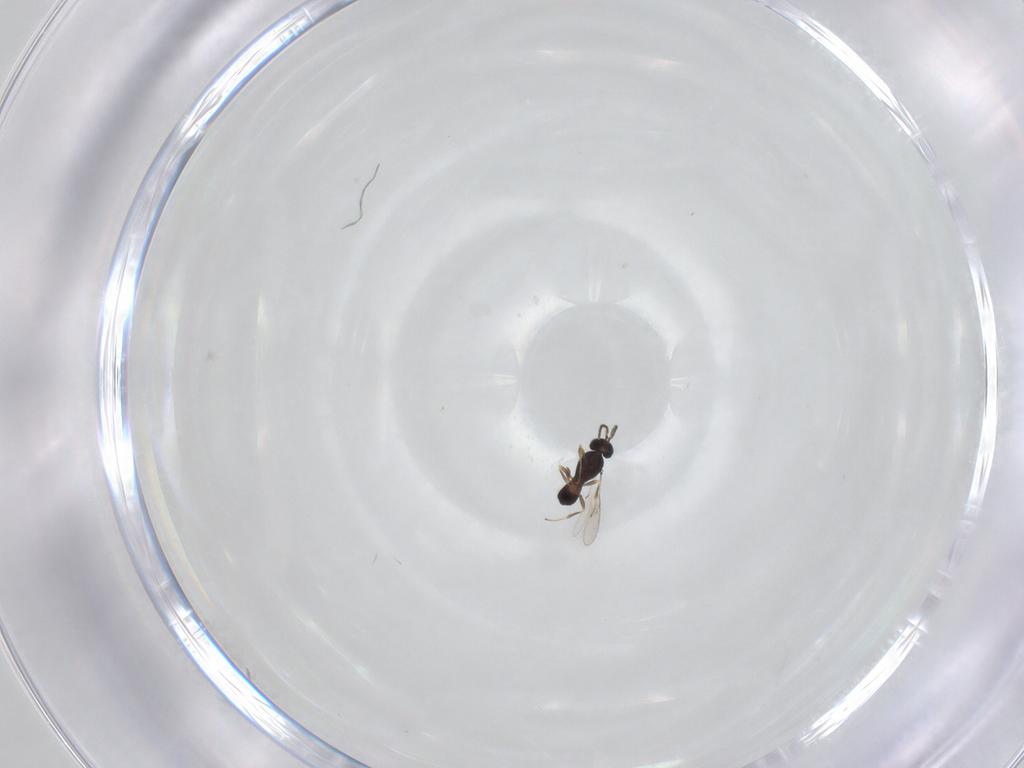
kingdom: Animalia
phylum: Arthropoda
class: Insecta
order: Hymenoptera
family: Scelionidae
